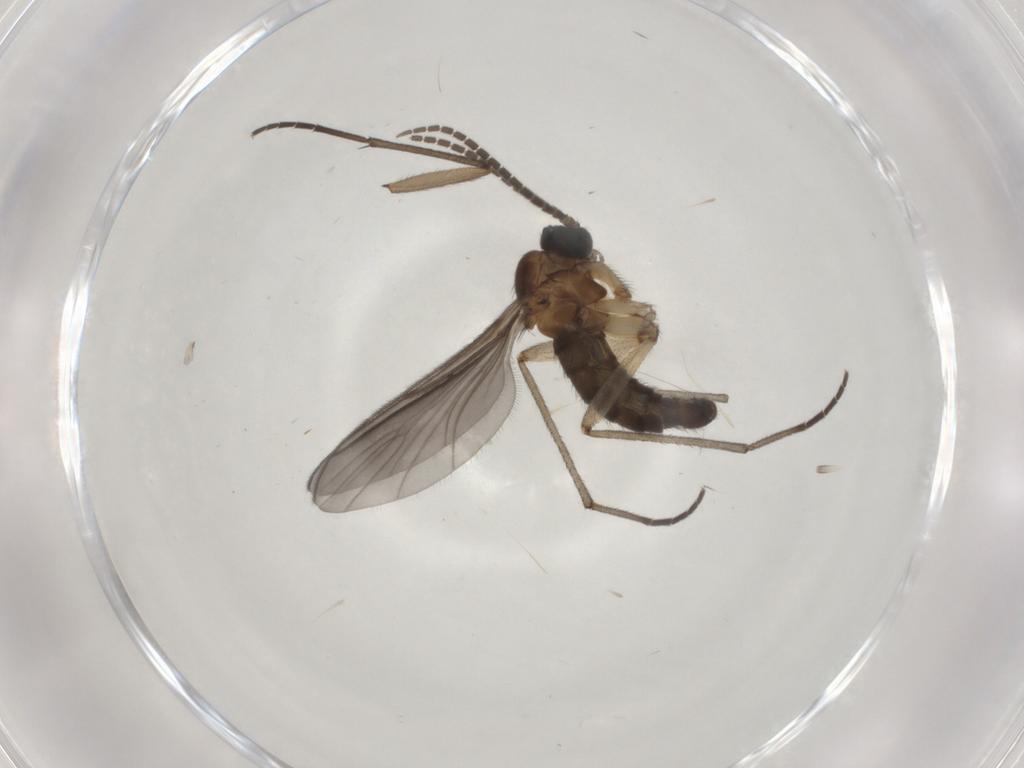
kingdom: Animalia
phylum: Arthropoda
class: Insecta
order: Diptera
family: Sciaridae
